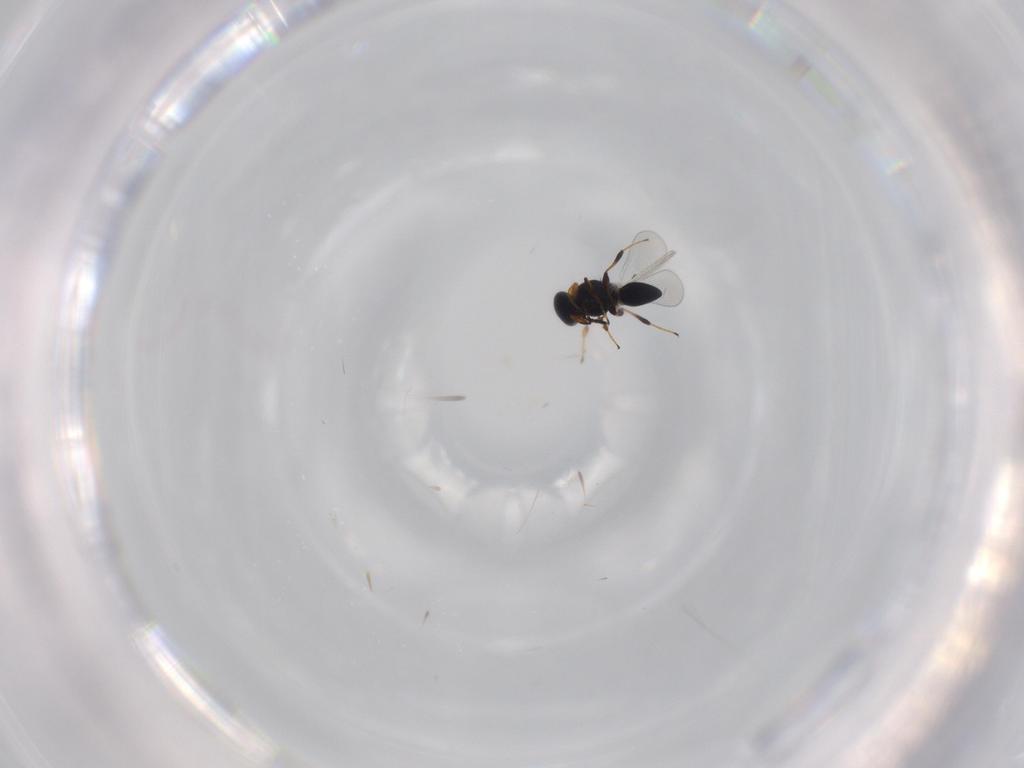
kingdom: Animalia
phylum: Arthropoda
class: Insecta
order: Hymenoptera
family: Platygastridae
